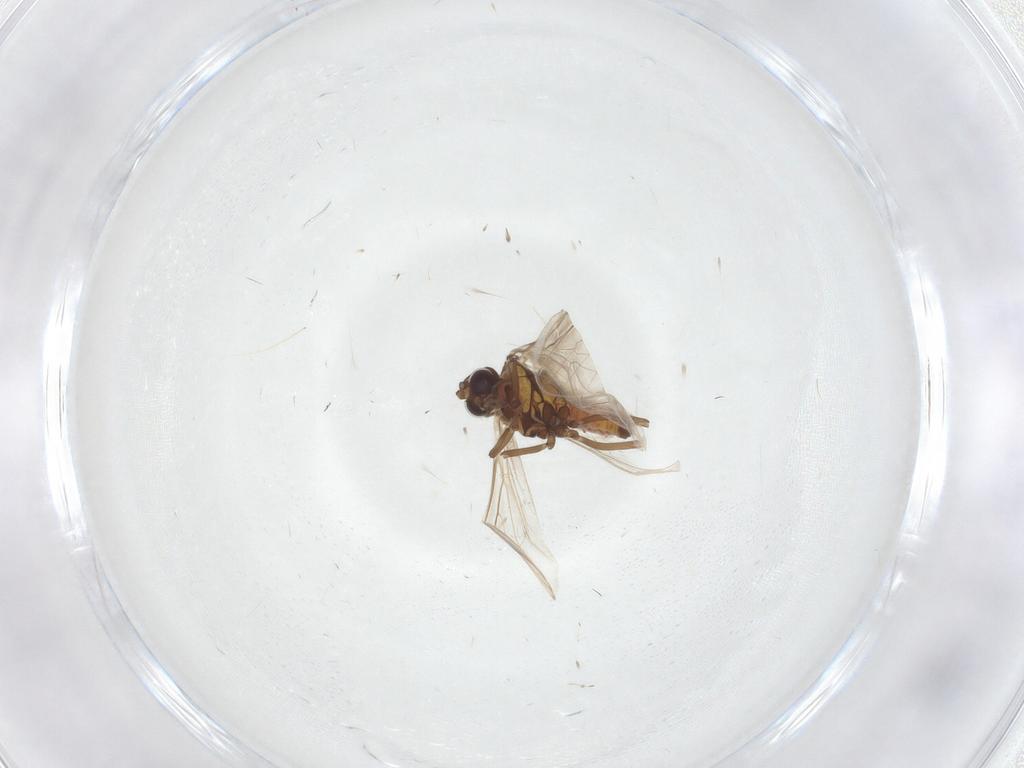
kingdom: Animalia
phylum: Arthropoda
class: Insecta
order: Neuroptera
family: Coniopterygidae
